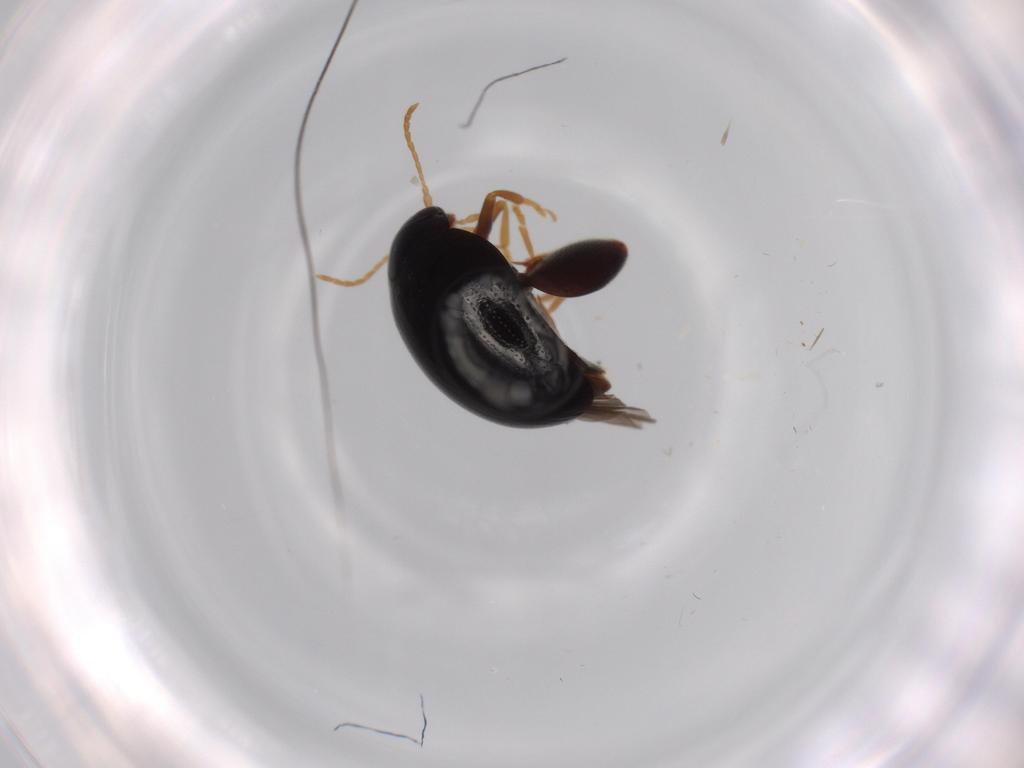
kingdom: Animalia
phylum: Arthropoda
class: Insecta
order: Coleoptera
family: Chrysomelidae
